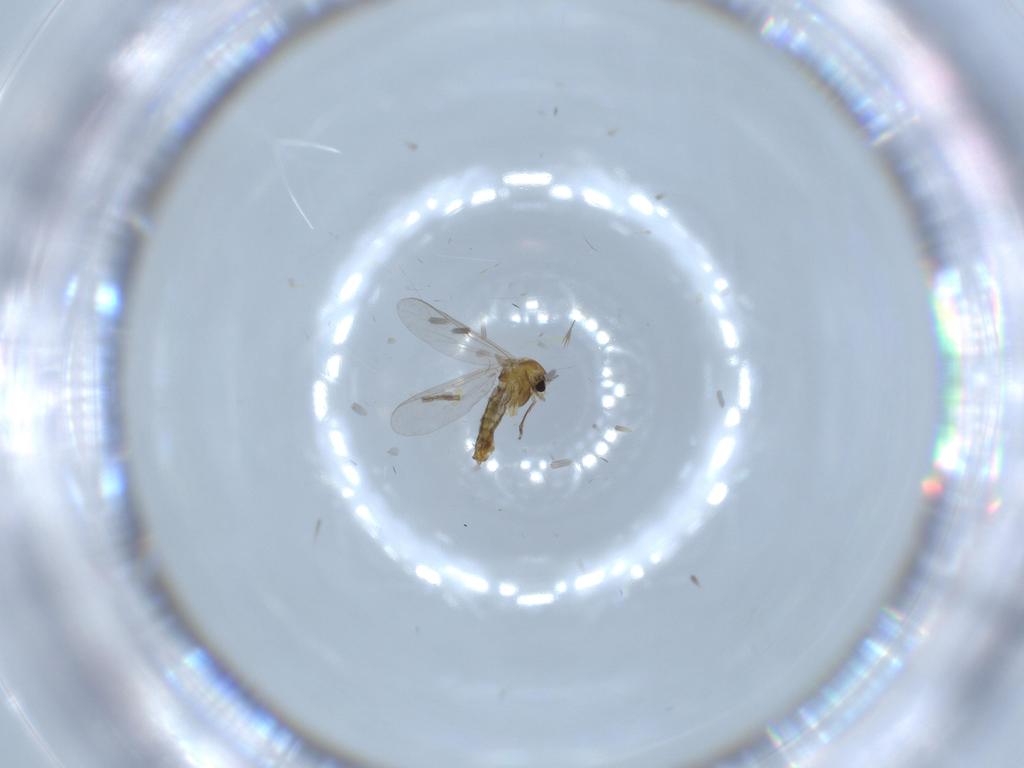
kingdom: Animalia
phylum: Arthropoda
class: Insecta
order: Diptera
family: Chironomidae
